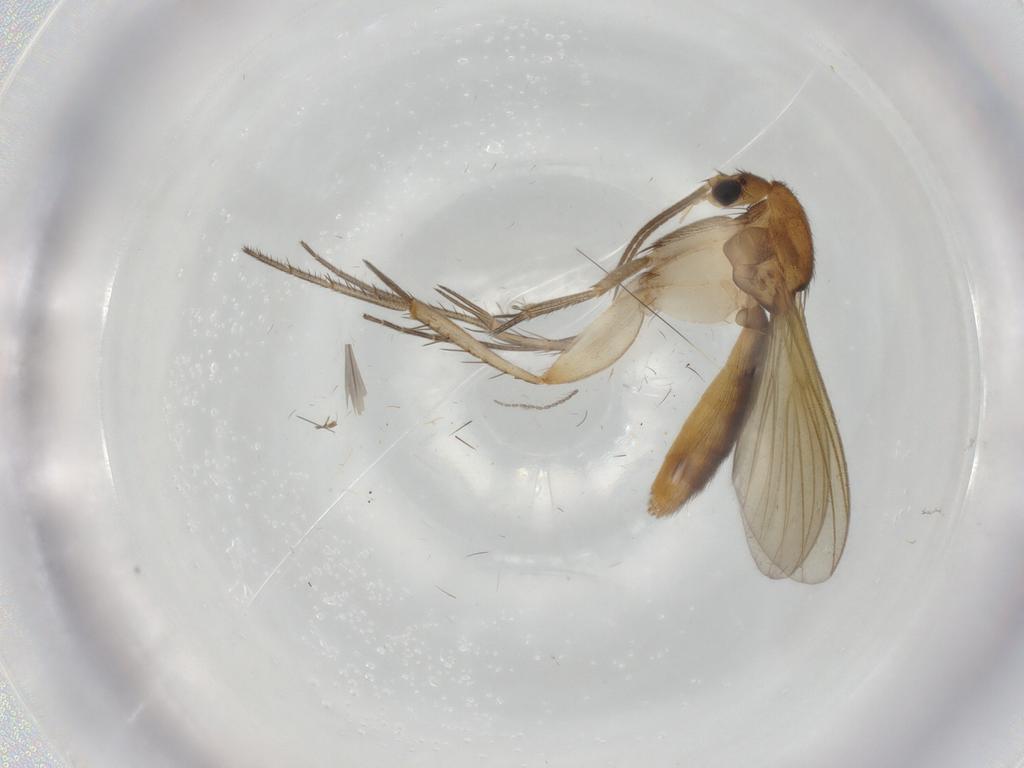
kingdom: Animalia
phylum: Arthropoda
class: Insecta
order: Diptera
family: Mycetophilidae
